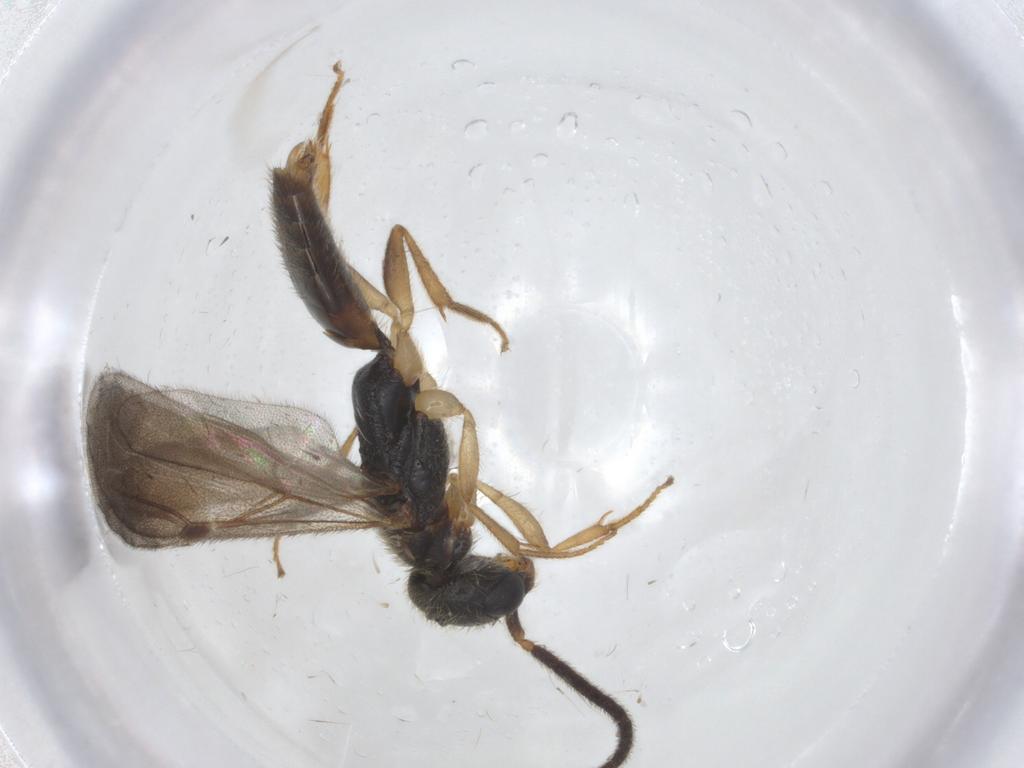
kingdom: Animalia
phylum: Arthropoda
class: Insecta
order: Hymenoptera
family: Bethylidae
